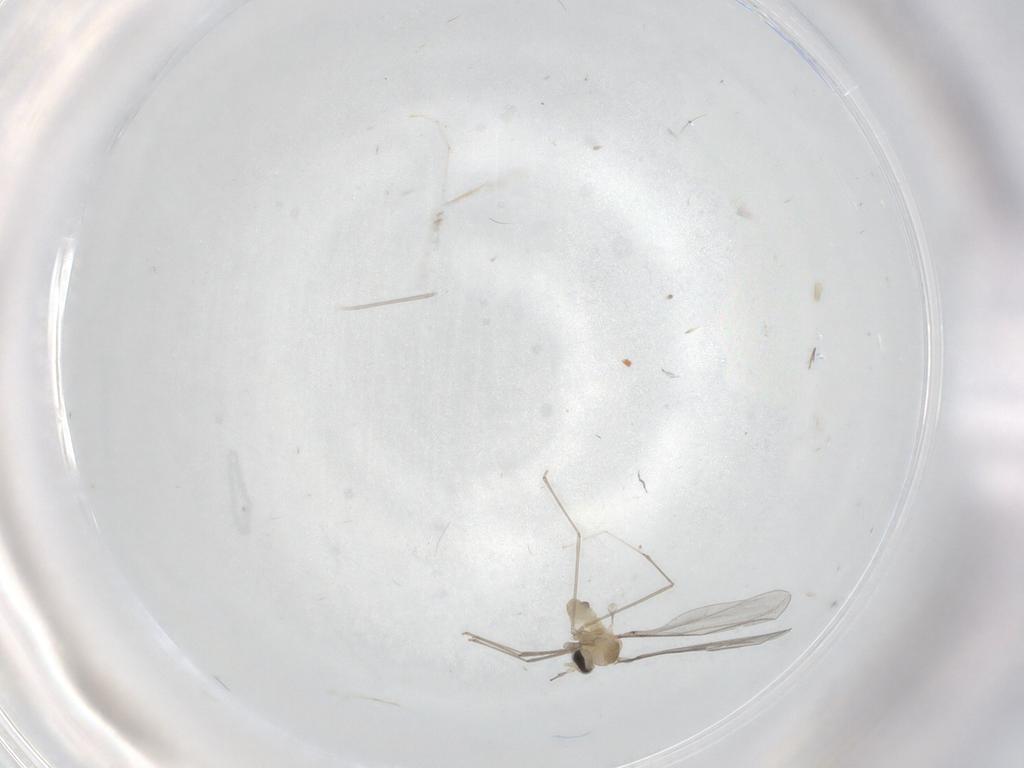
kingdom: Animalia
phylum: Arthropoda
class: Insecta
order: Diptera
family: Cecidomyiidae
